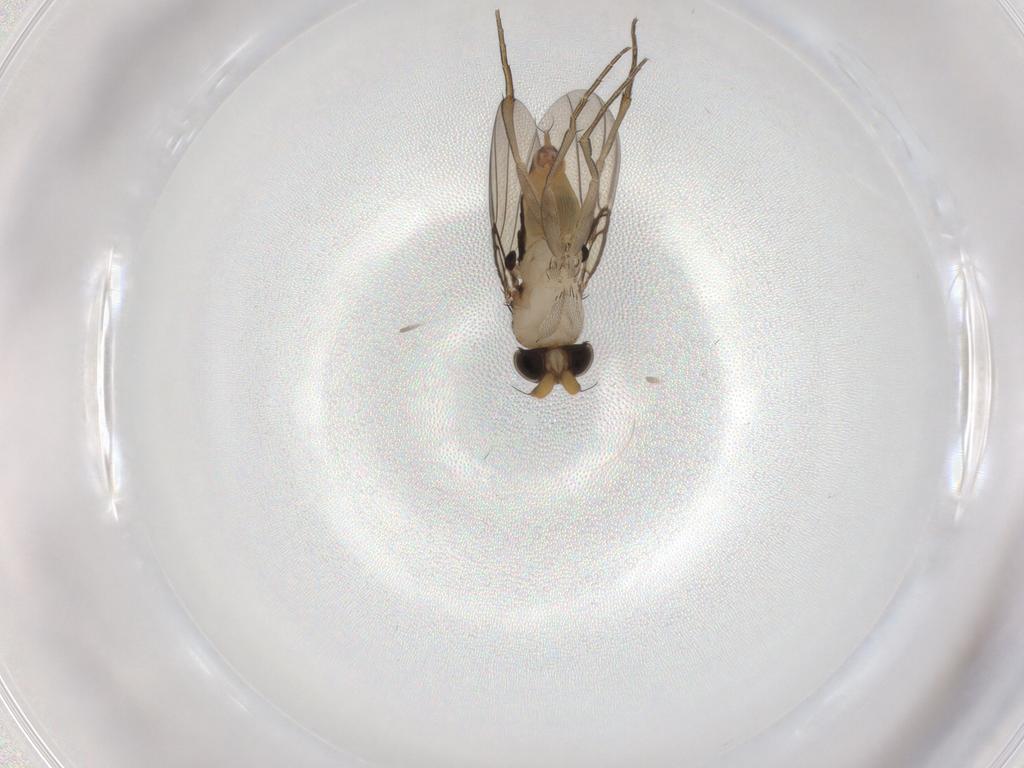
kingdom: Animalia
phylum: Arthropoda
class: Insecta
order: Diptera
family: Phoridae
